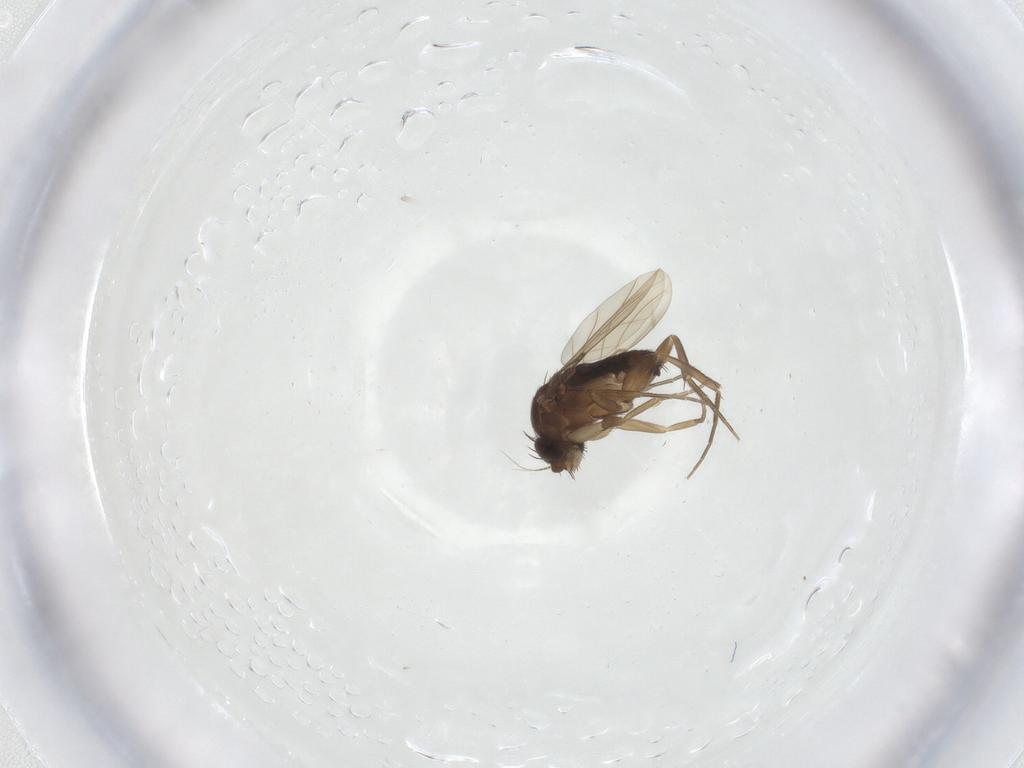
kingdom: Animalia
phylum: Arthropoda
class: Insecta
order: Diptera
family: Phoridae
